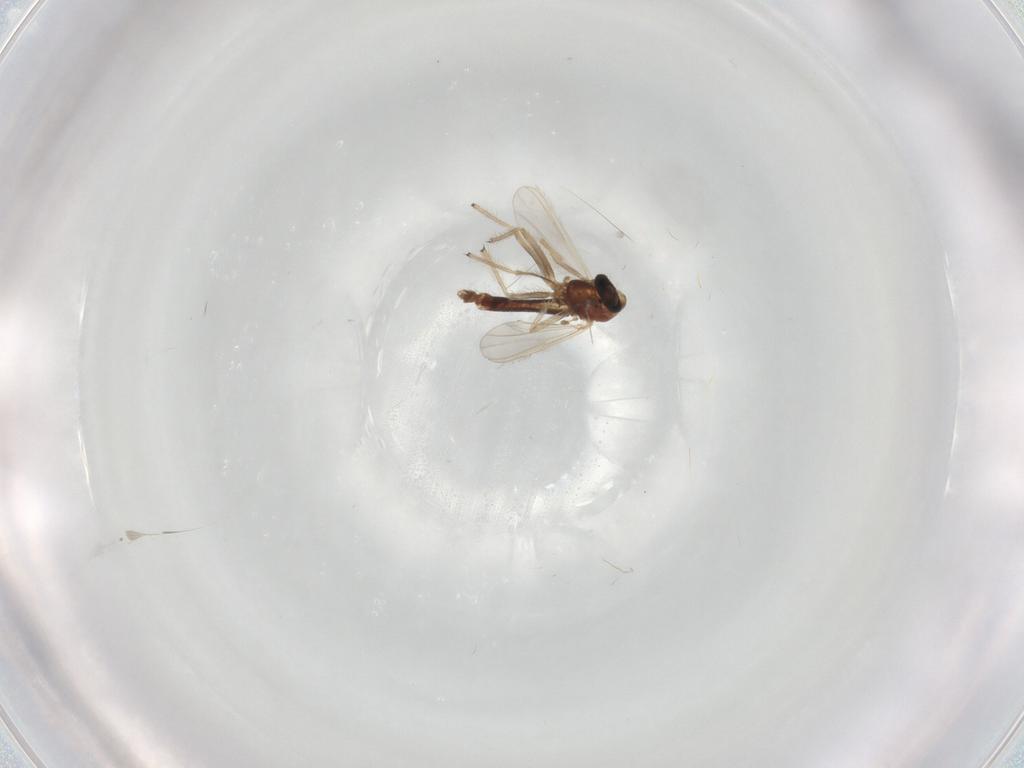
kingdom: Animalia
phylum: Arthropoda
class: Insecta
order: Diptera
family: Chironomidae
